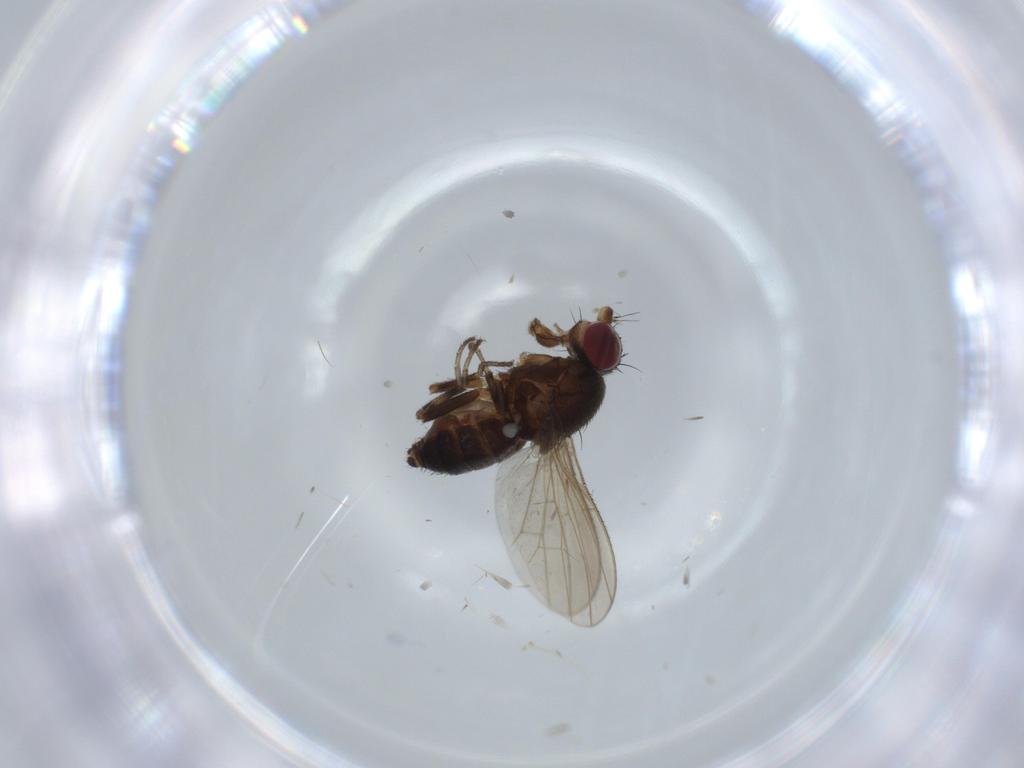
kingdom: Animalia
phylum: Arthropoda
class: Insecta
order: Diptera
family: Heleomyzidae
